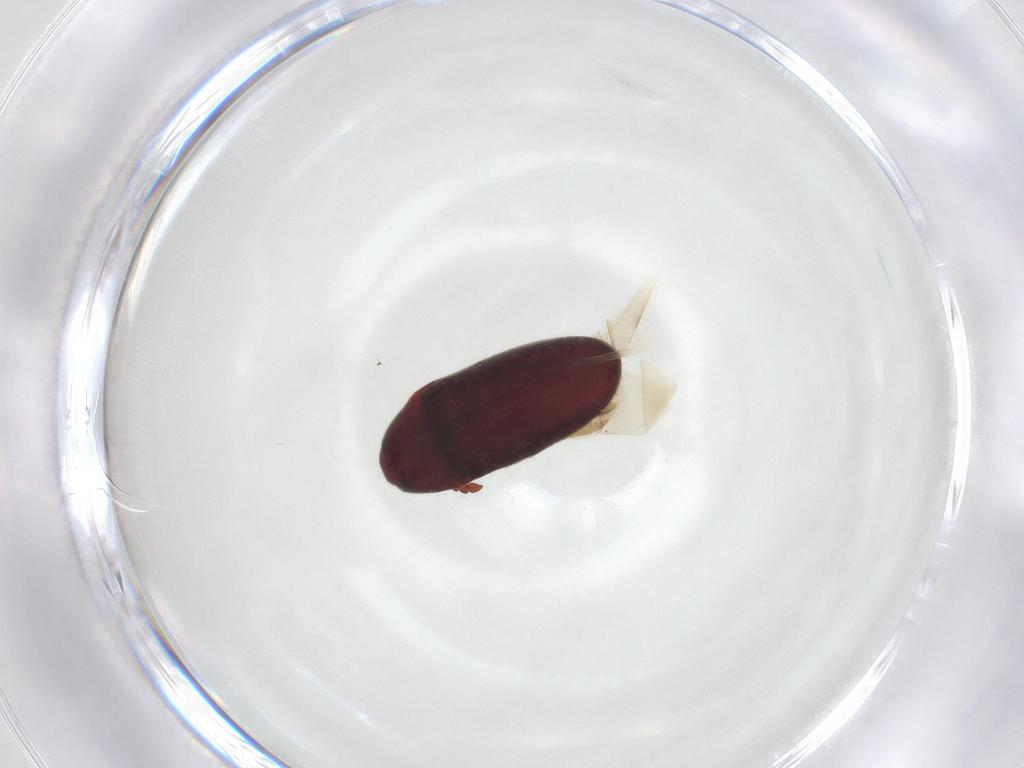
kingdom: Animalia
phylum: Arthropoda
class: Insecta
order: Coleoptera
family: Throscidae
